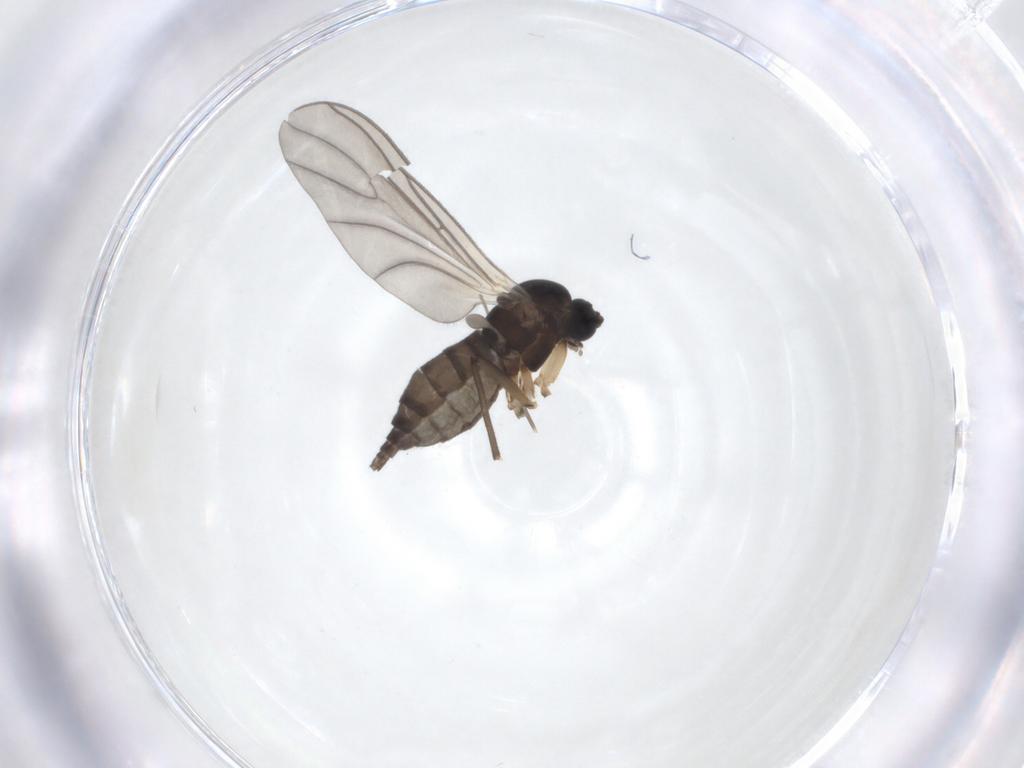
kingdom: Animalia
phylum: Arthropoda
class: Insecta
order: Diptera
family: Sciaridae
